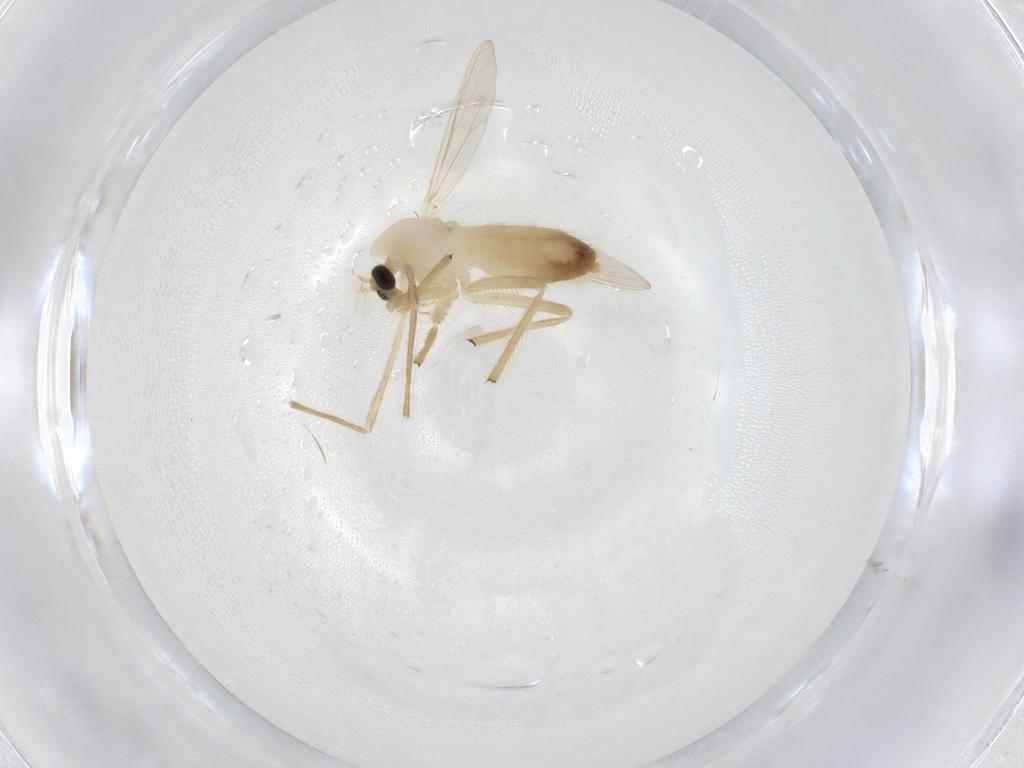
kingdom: Animalia
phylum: Arthropoda
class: Insecta
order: Diptera
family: Chironomidae
